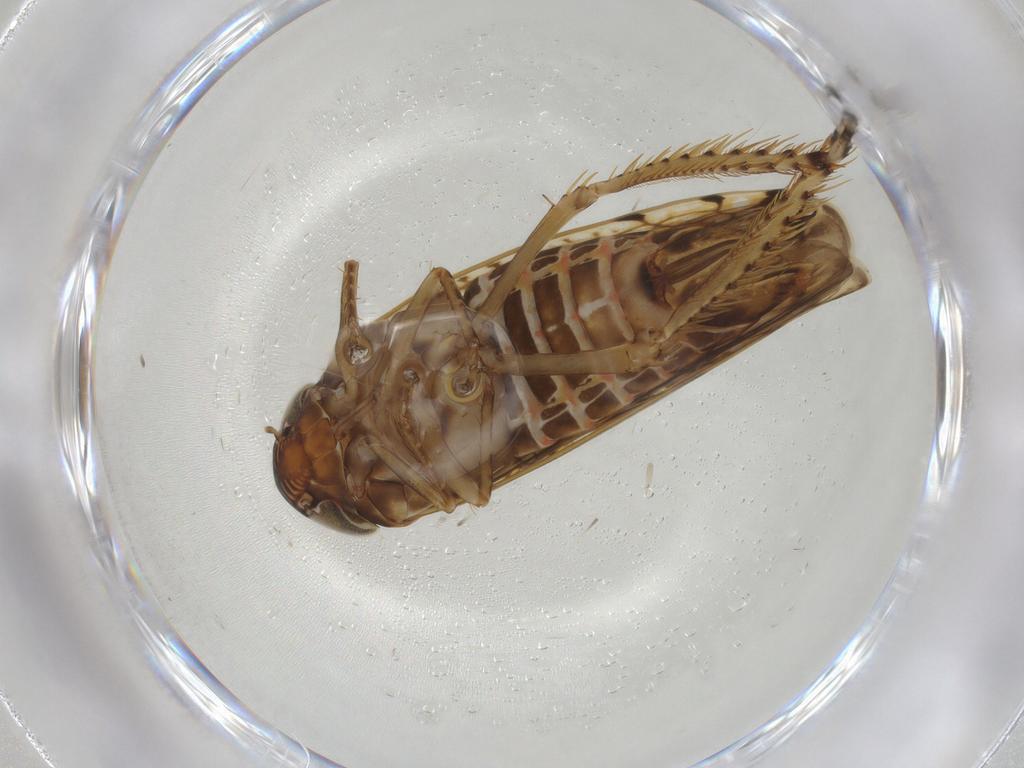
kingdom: Animalia
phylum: Arthropoda
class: Insecta
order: Hemiptera
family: Cicadellidae
